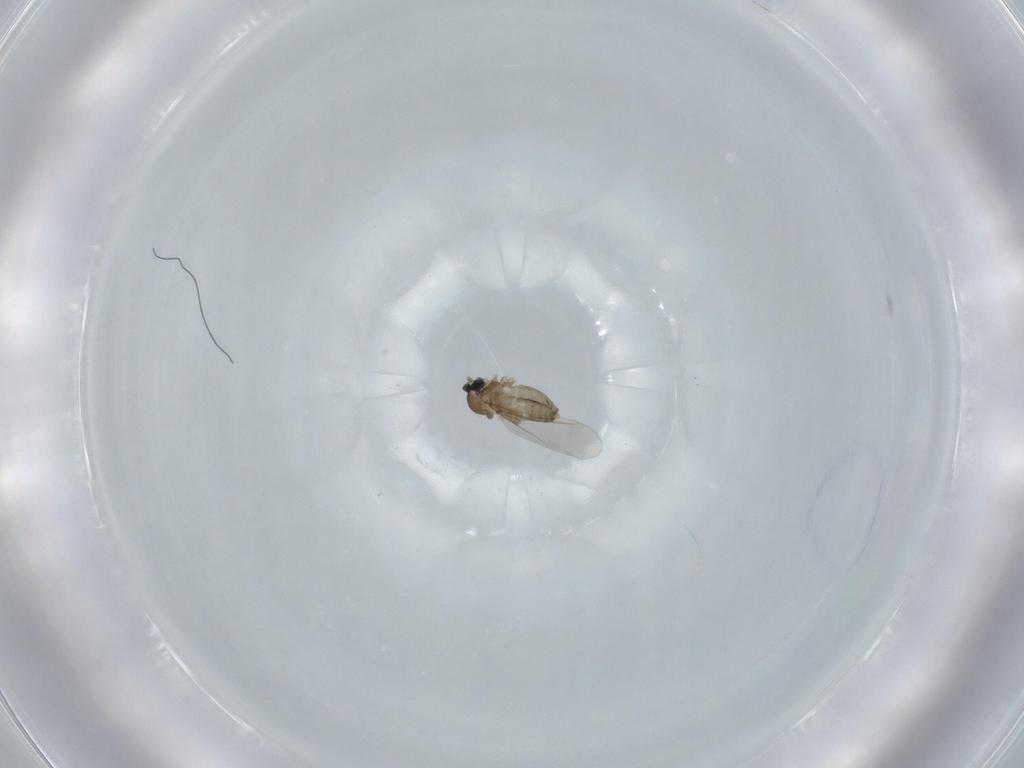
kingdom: Animalia
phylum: Arthropoda
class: Insecta
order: Diptera
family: Cecidomyiidae
